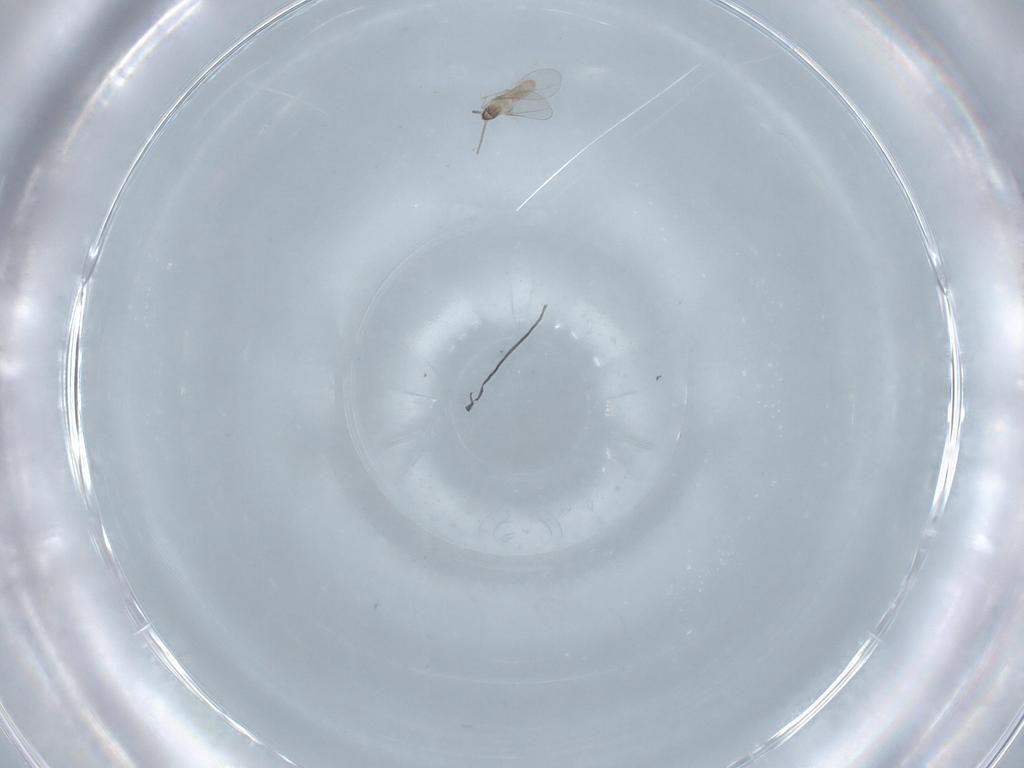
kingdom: Animalia
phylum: Arthropoda
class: Insecta
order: Diptera
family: Cecidomyiidae
